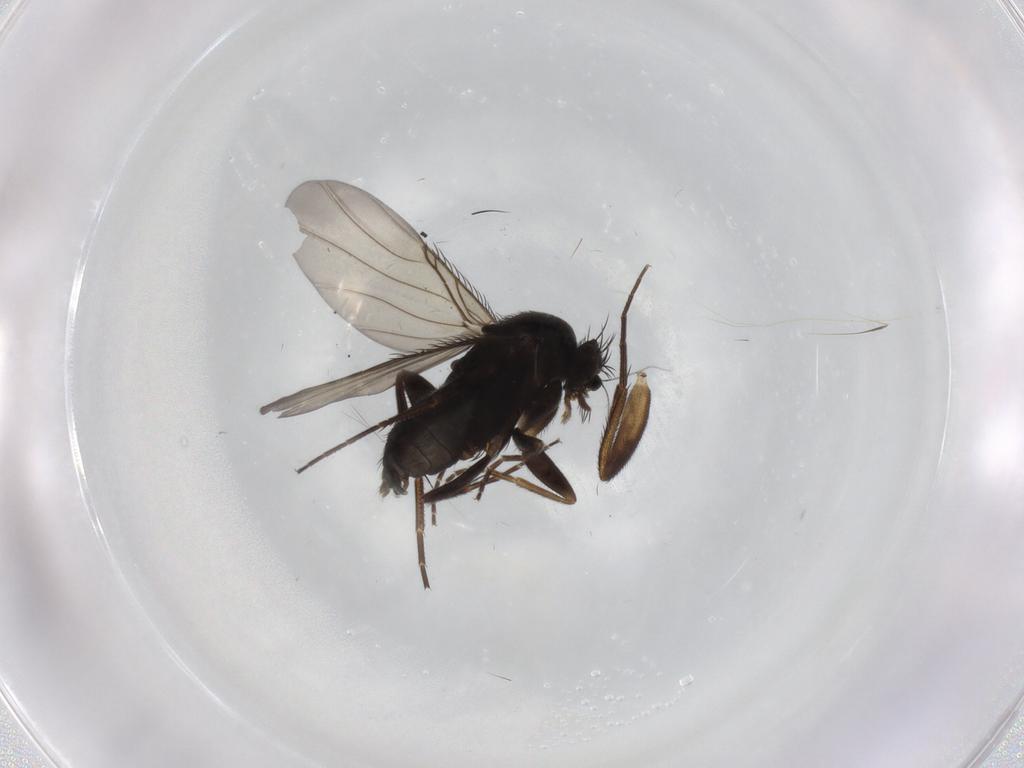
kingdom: Animalia
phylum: Arthropoda
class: Insecta
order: Diptera
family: Phoridae
